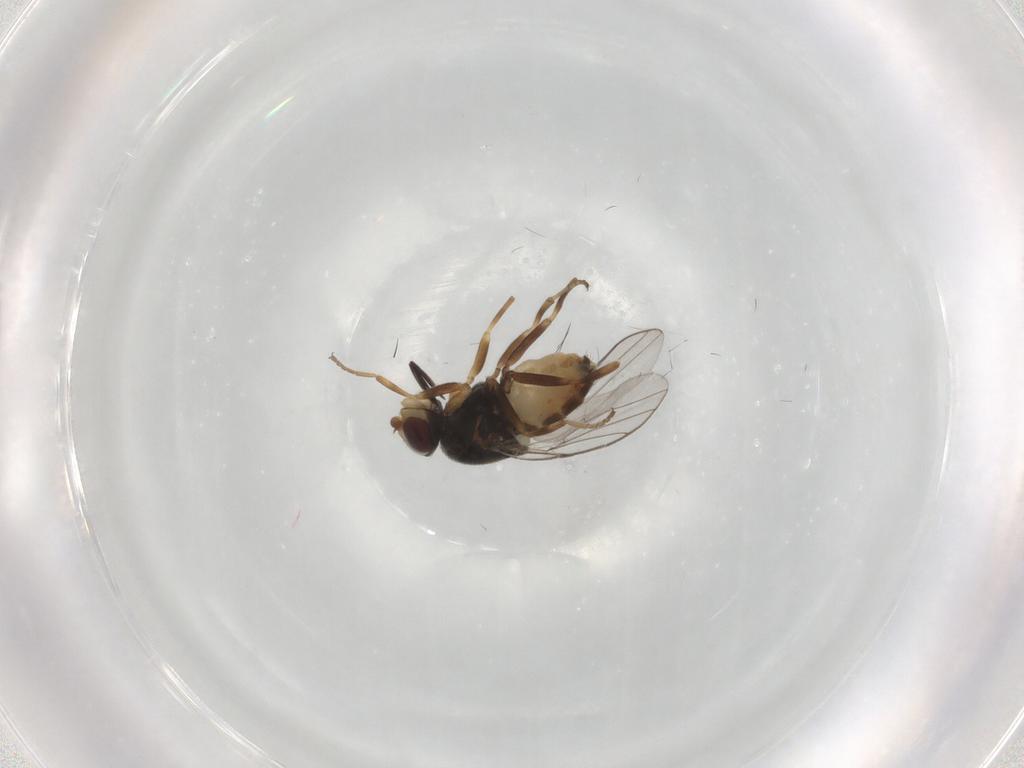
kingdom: Animalia
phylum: Arthropoda
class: Insecta
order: Diptera
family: Chloropidae
